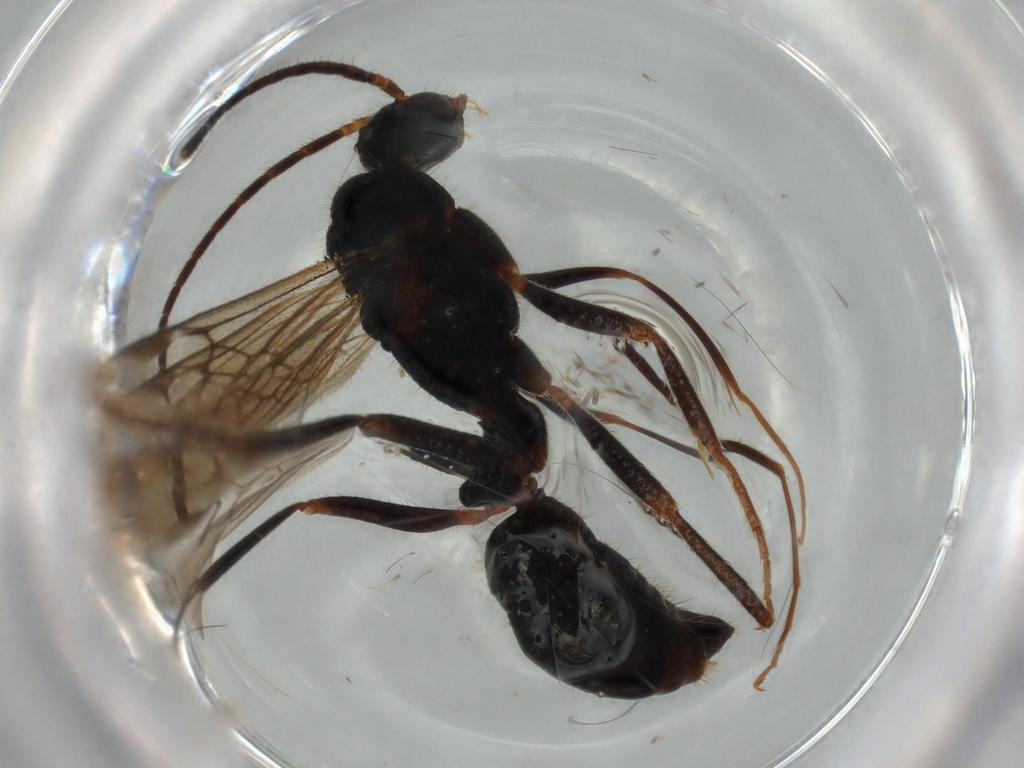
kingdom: Animalia
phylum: Arthropoda
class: Insecta
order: Hymenoptera
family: Formicidae
